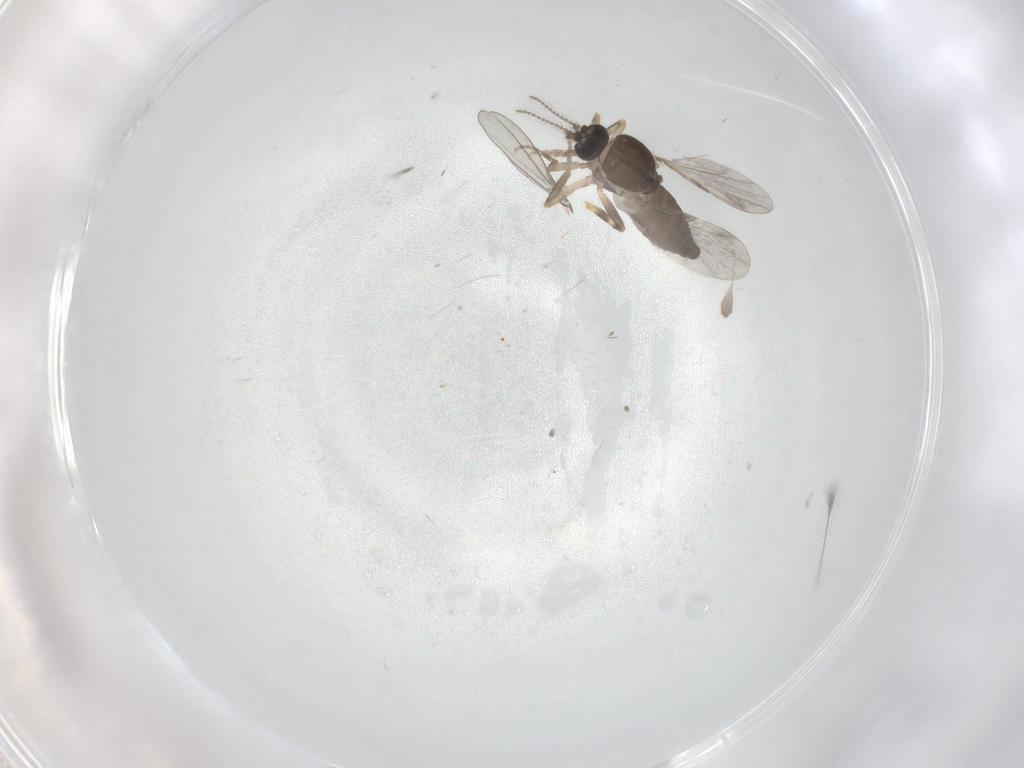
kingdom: Animalia
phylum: Arthropoda
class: Insecta
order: Diptera
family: Ceratopogonidae
